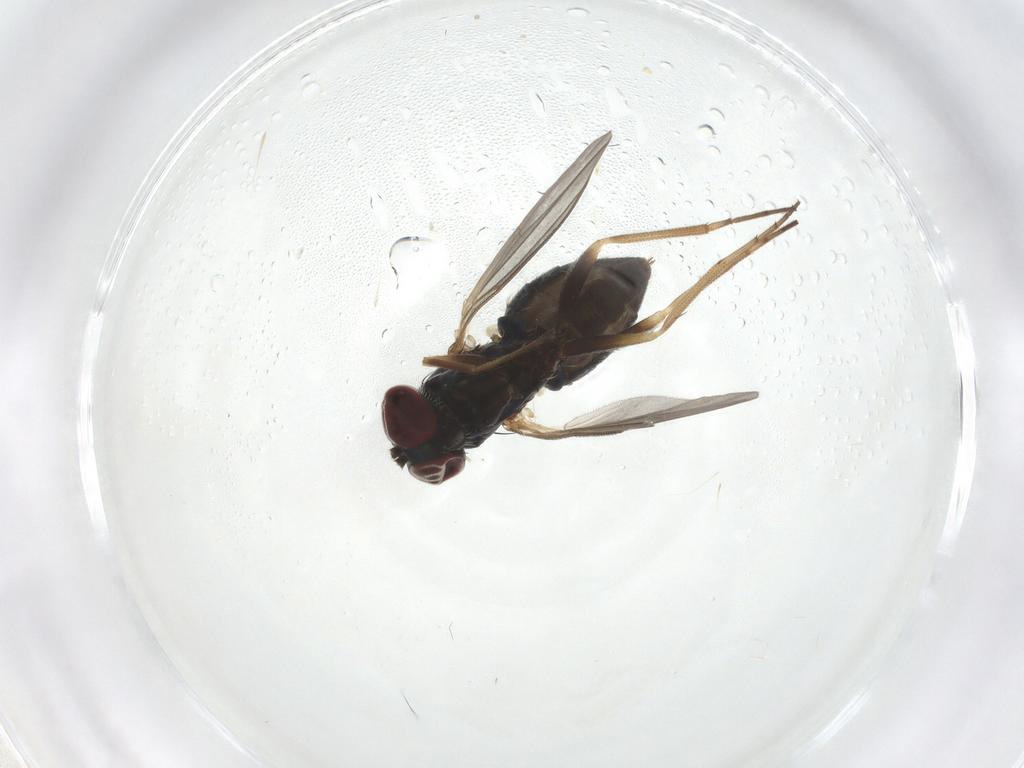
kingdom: Animalia
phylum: Arthropoda
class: Insecta
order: Diptera
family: Dolichopodidae
